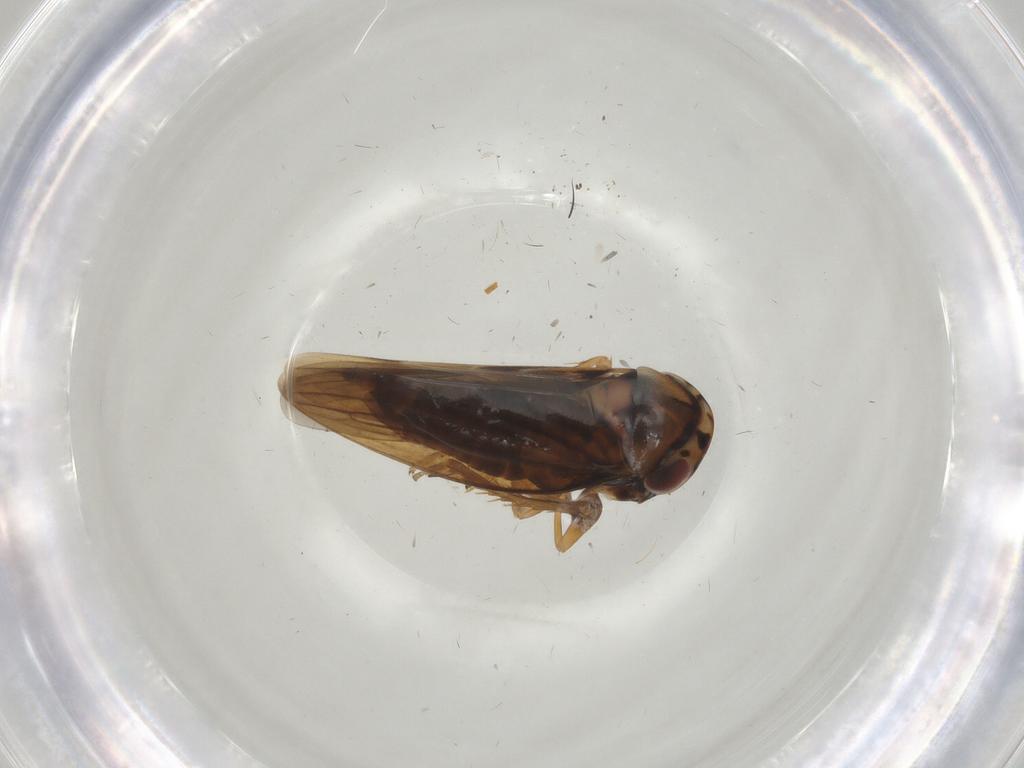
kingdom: Animalia
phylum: Arthropoda
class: Insecta
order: Hemiptera
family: Cicadellidae
